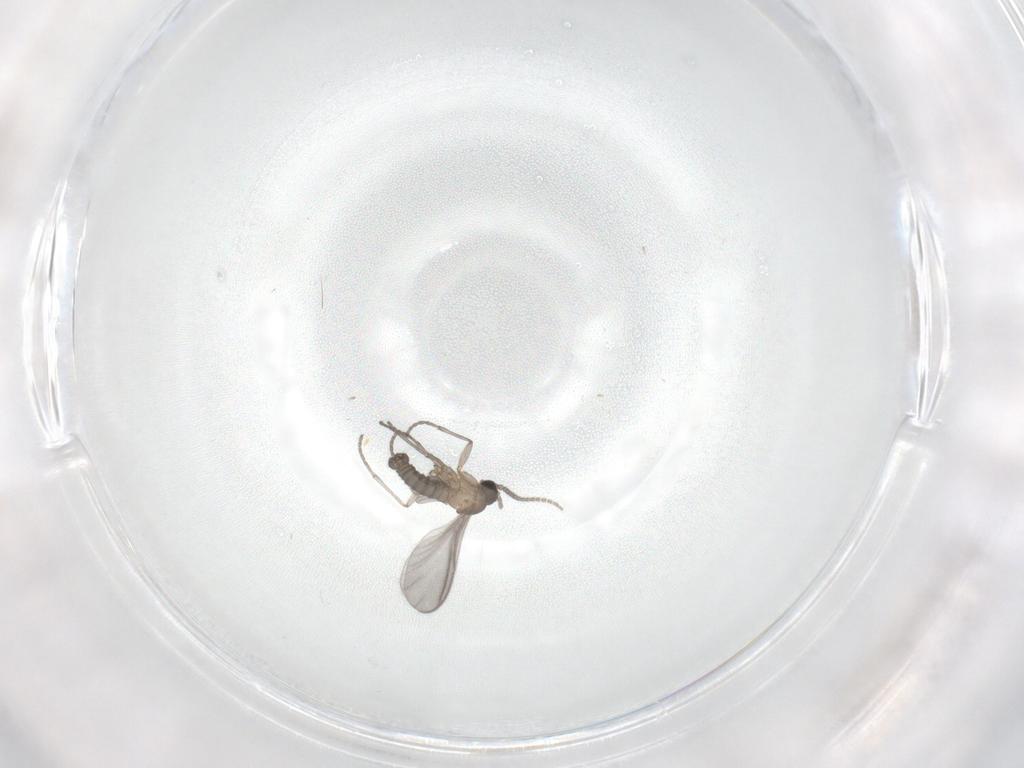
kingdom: Animalia
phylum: Arthropoda
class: Insecta
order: Diptera
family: Sciaridae
